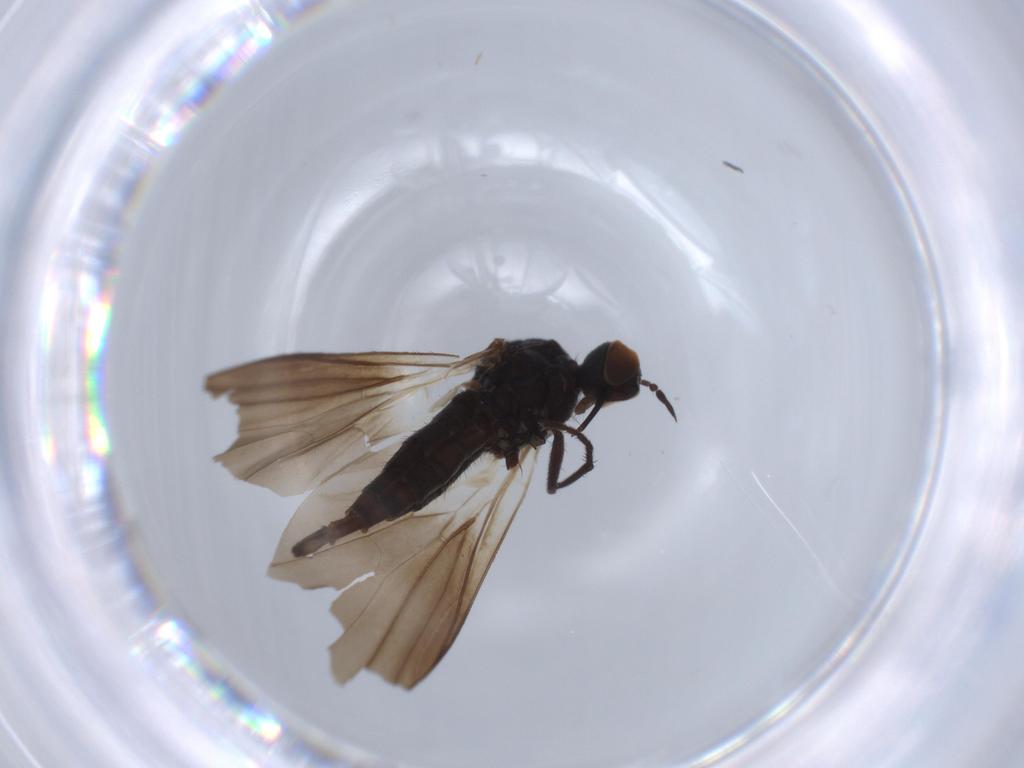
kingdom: Animalia
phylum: Arthropoda
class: Insecta
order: Diptera
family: Empididae
